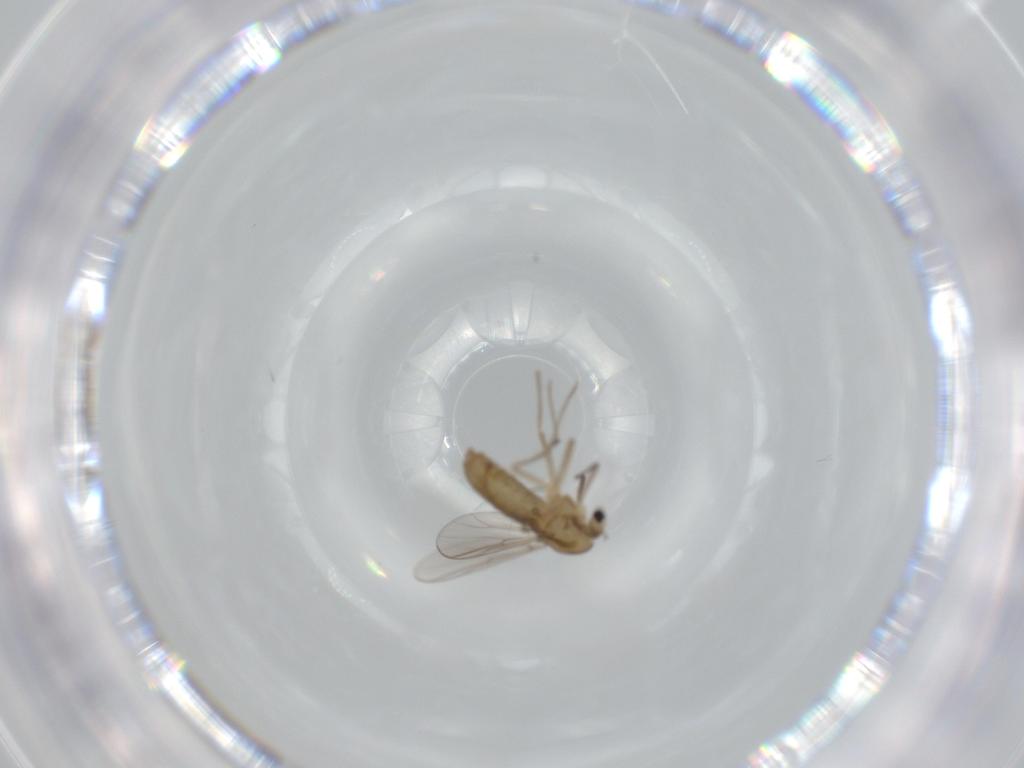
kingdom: Animalia
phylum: Arthropoda
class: Insecta
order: Diptera
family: Chironomidae
